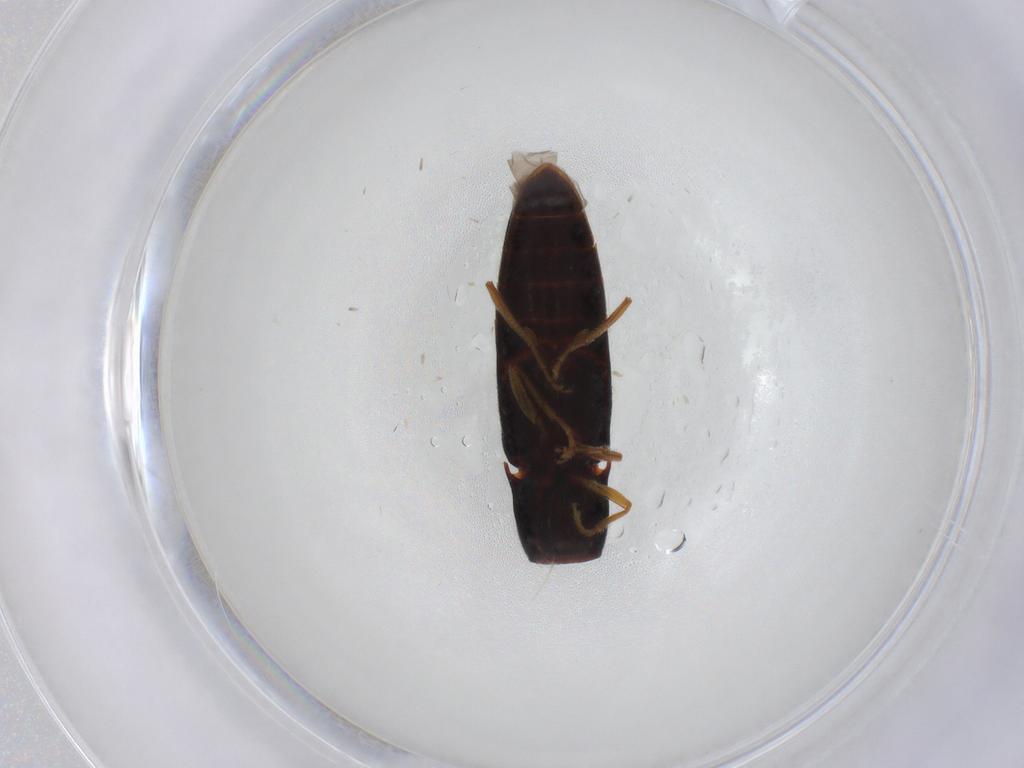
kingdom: Animalia
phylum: Arthropoda
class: Insecta
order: Coleoptera
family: Elateridae
